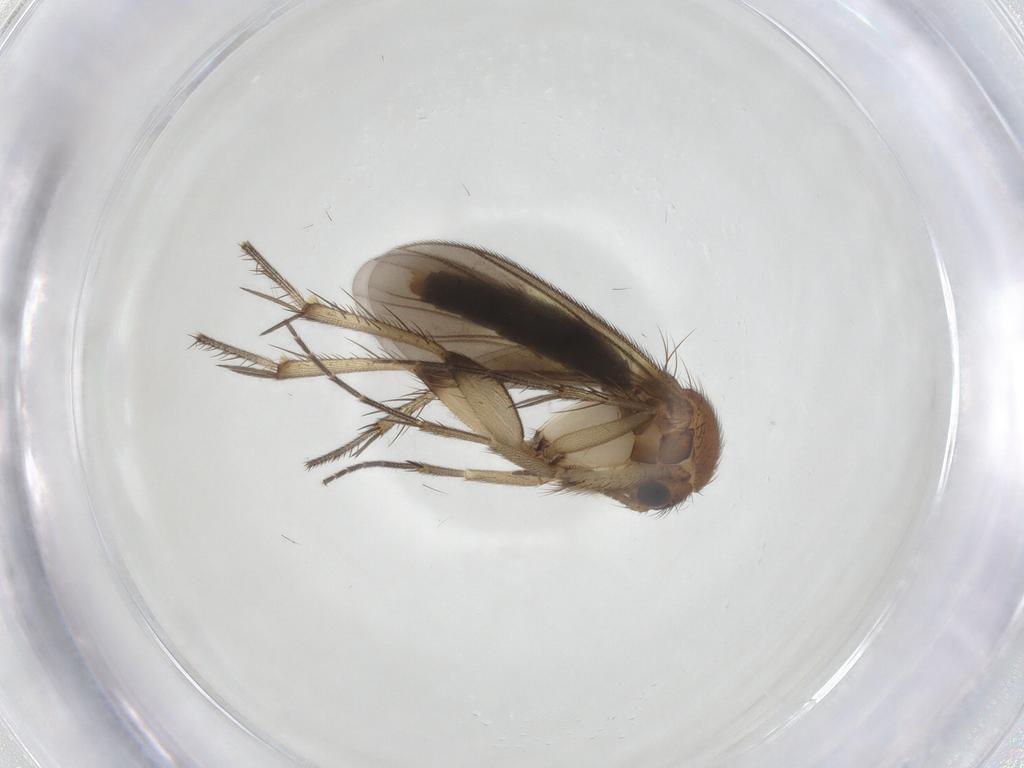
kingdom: Animalia
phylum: Arthropoda
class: Insecta
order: Diptera
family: Mycetophilidae
